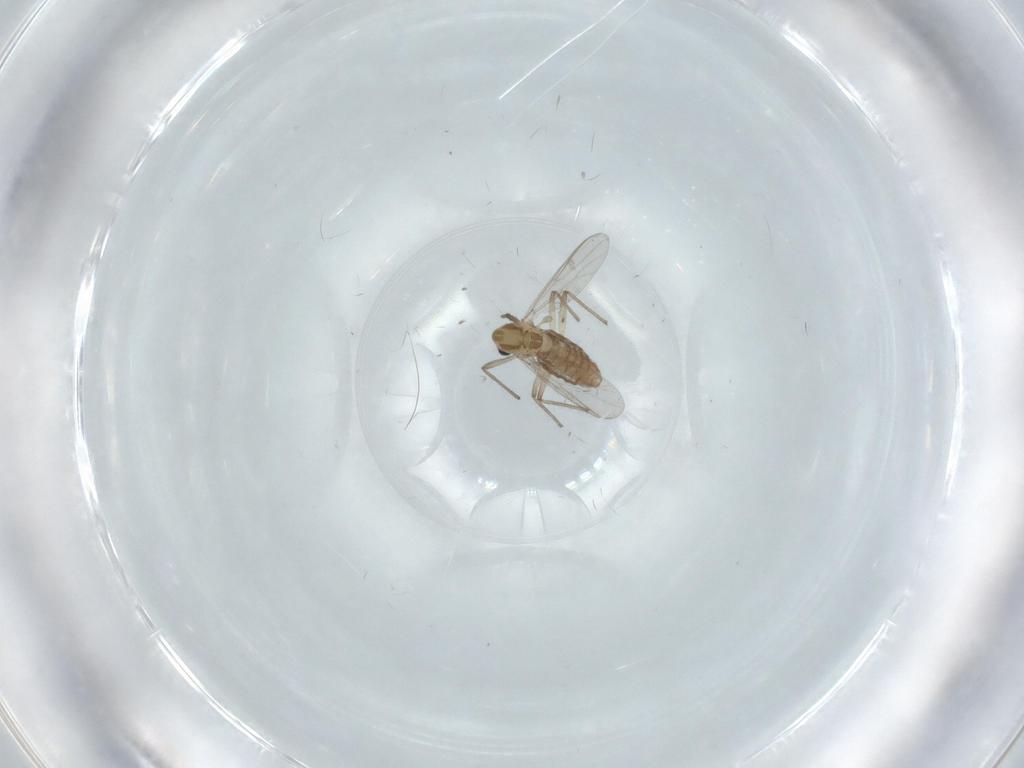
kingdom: Animalia
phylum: Arthropoda
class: Insecta
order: Diptera
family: Chironomidae
